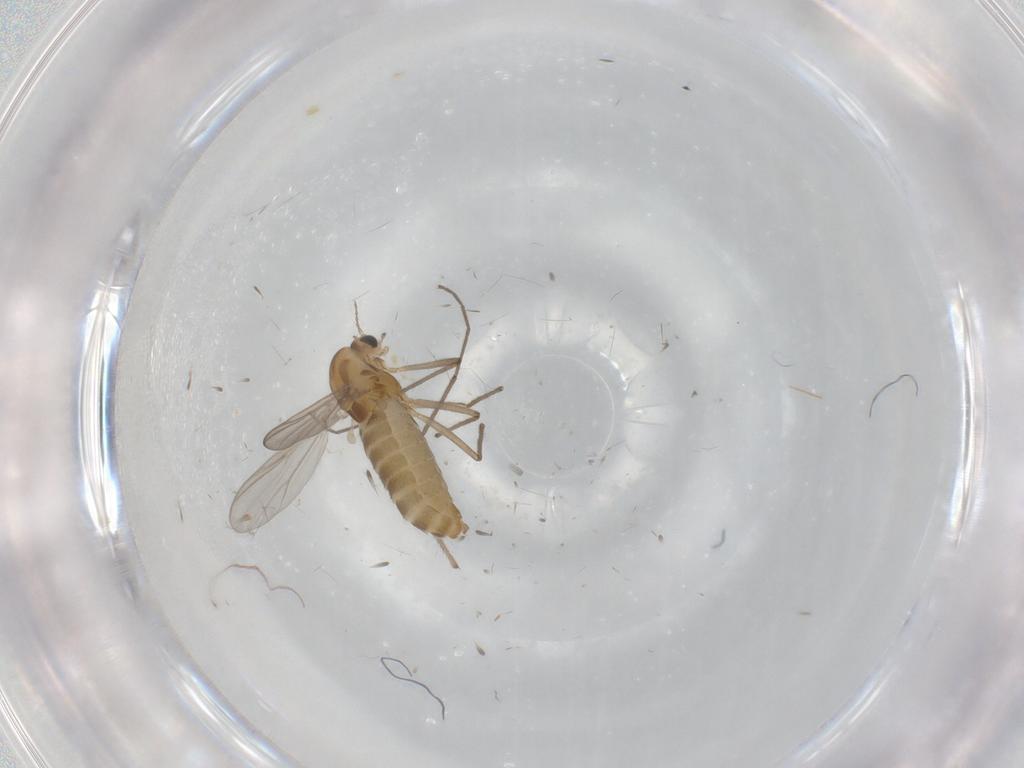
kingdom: Animalia
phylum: Arthropoda
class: Insecta
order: Diptera
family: Chironomidae
